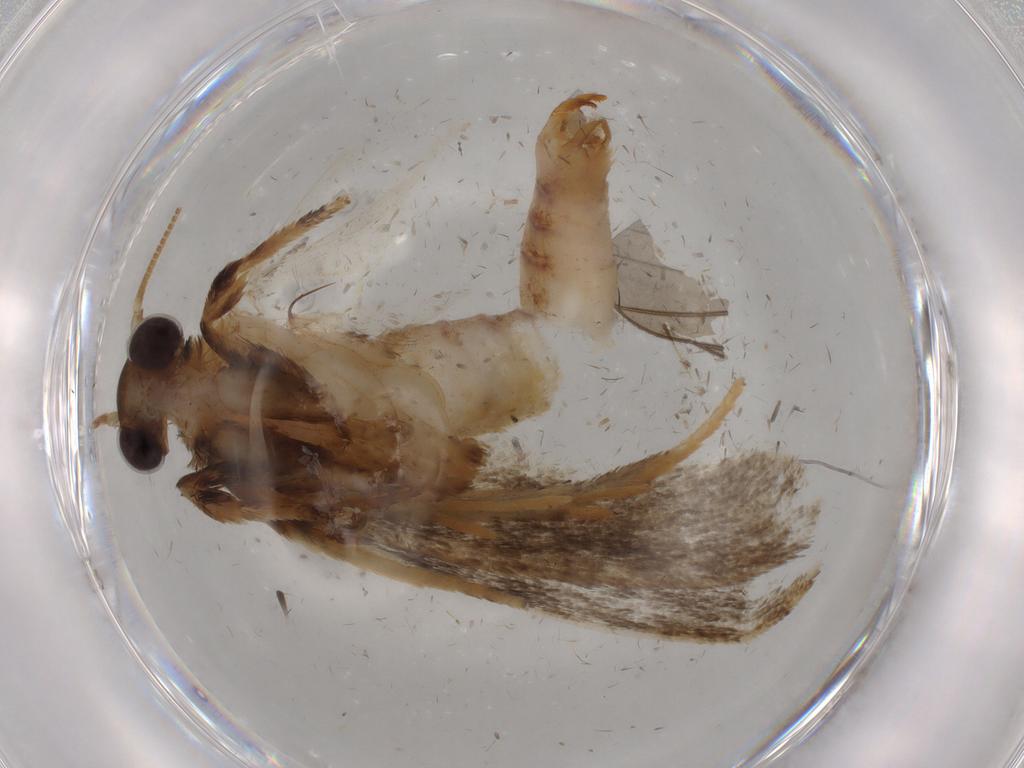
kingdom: Animalia
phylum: Arthropoda
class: Insecta
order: Lepidoptera
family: Tineidae
